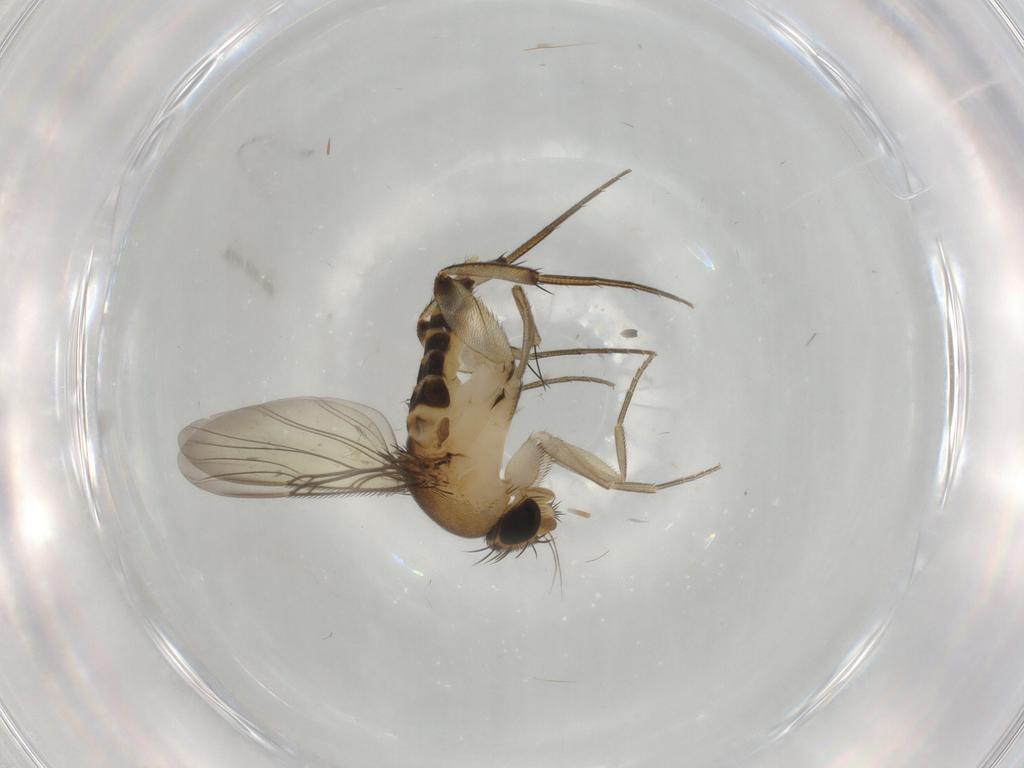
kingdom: Animalia
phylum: Arthropoda
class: Insecta
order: Diptera
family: Phoridae
